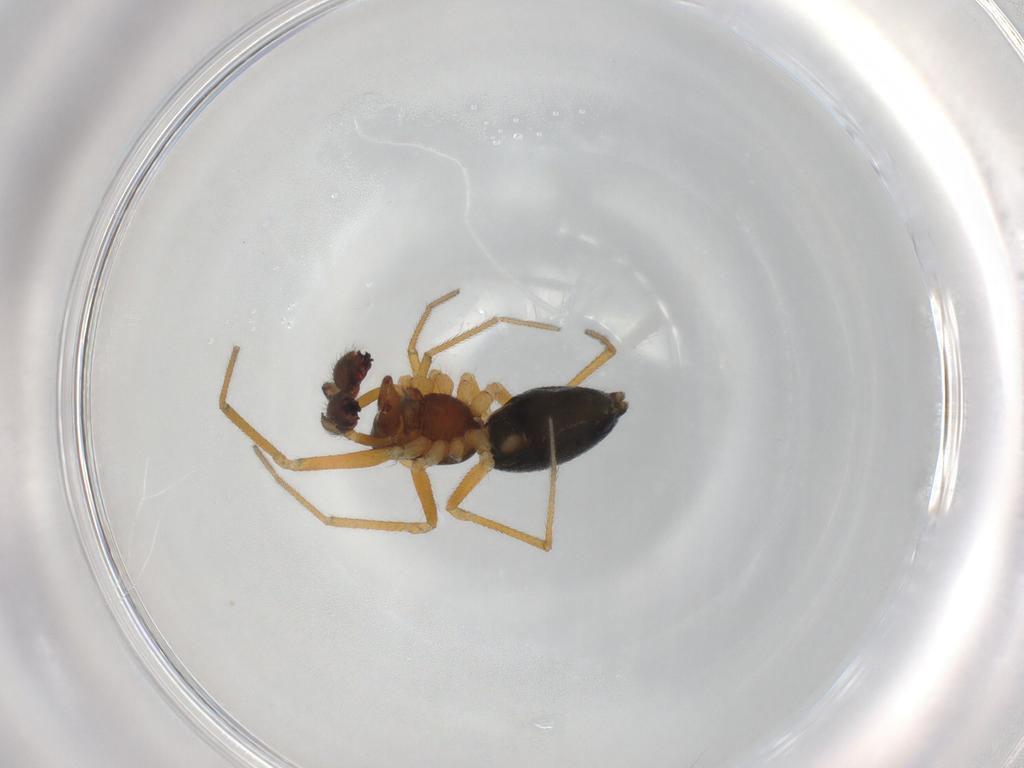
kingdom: Animalia
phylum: Arthropoda
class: Arachnida
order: Araneae
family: Linyphiidae
